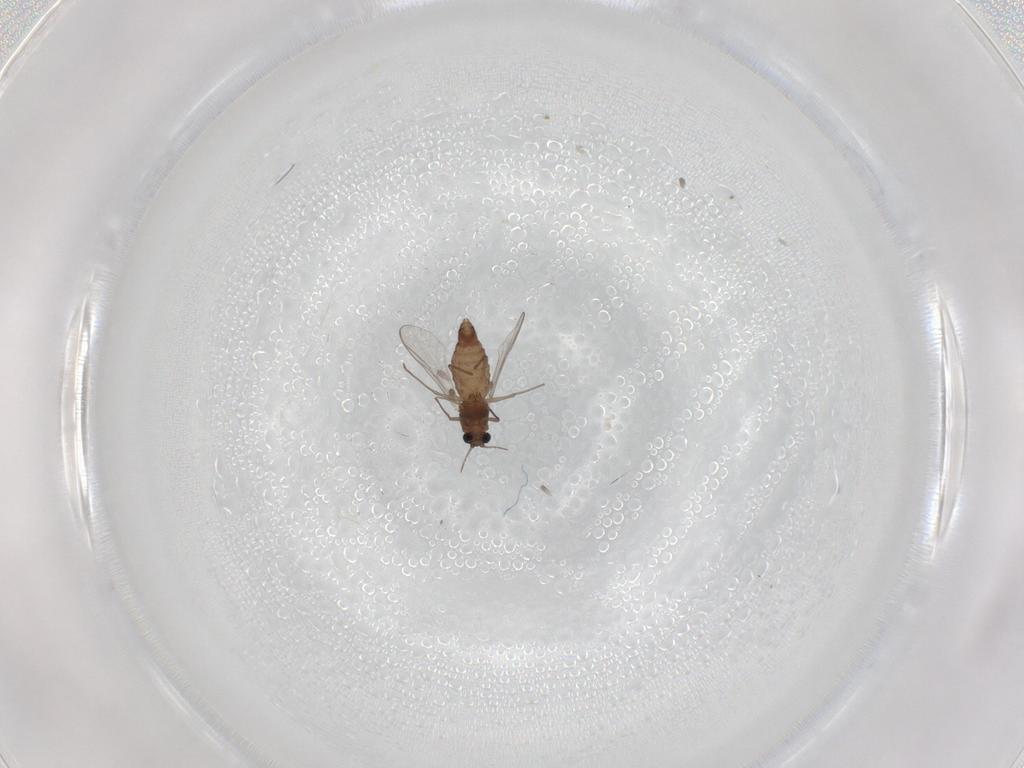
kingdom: Animalia
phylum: Arthropoda
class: Insecta
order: Diptera
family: Chironomidae
